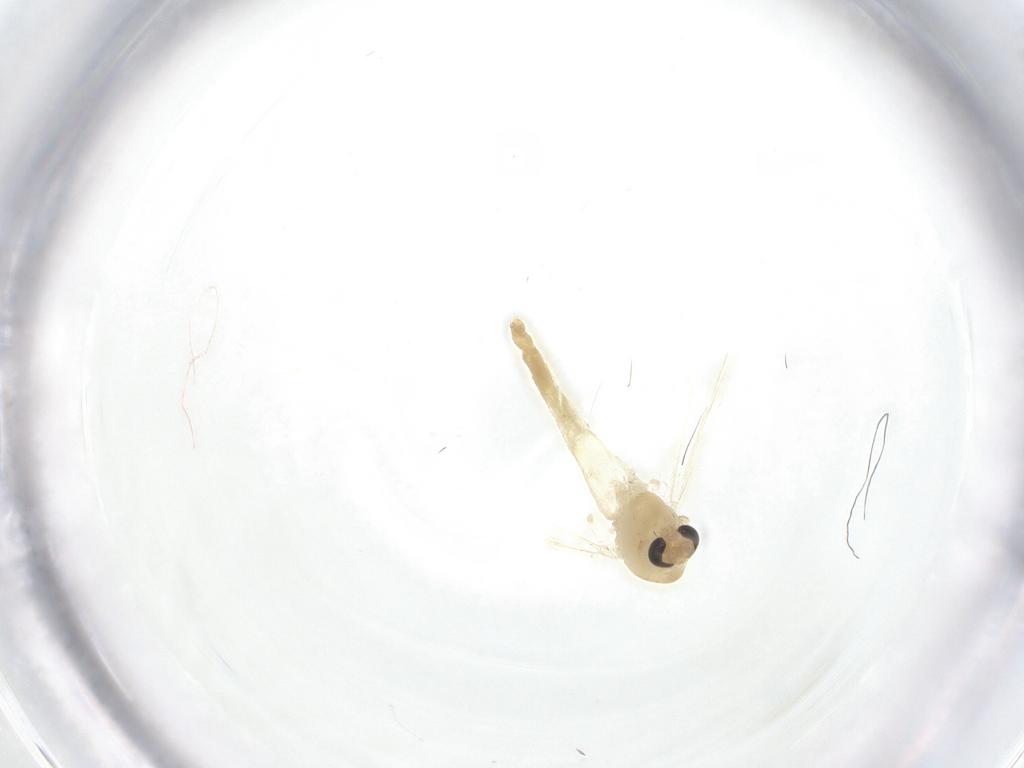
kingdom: Animalia
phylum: Arthropoda
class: Insecta
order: Diptera
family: Chironomidae
